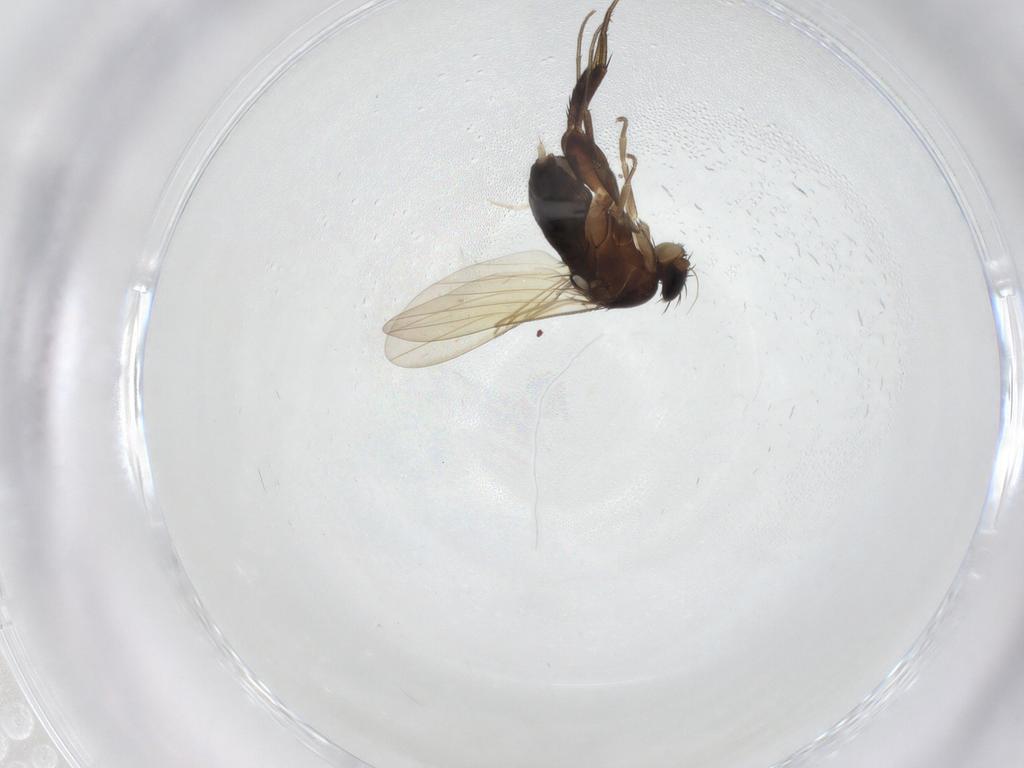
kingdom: Animalia
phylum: Arthropoda
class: Insecta
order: Diptera
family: Phoridae
